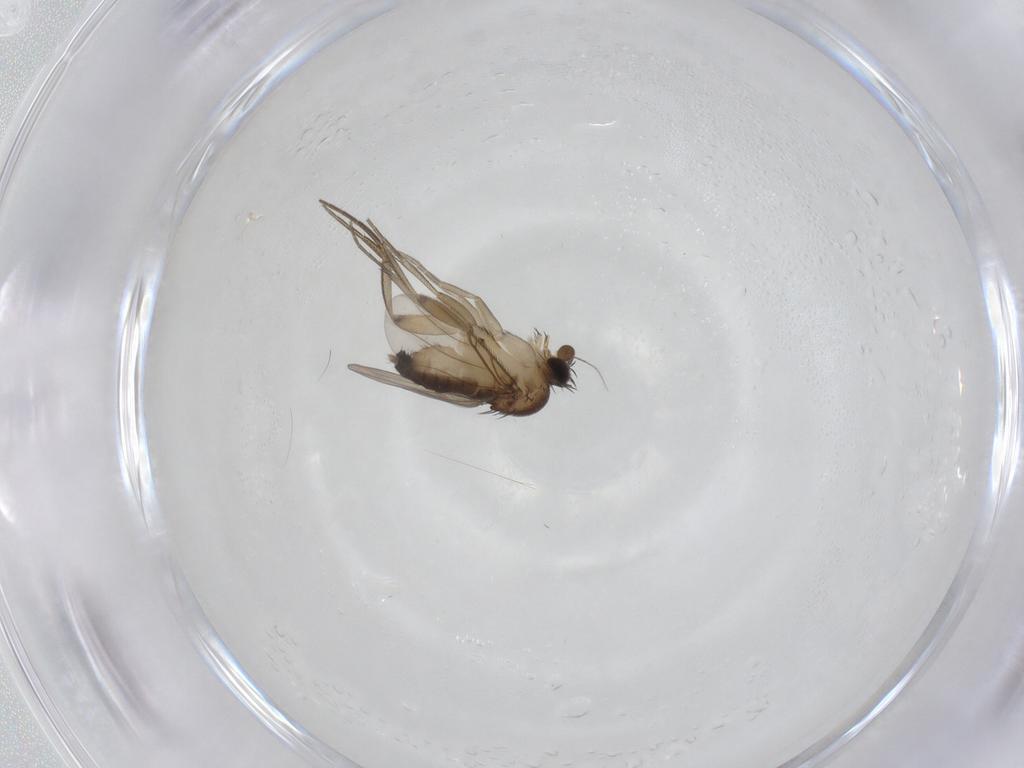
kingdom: Animalia
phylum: Arthropoda
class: Insecta
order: Diptera
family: Phoridae
